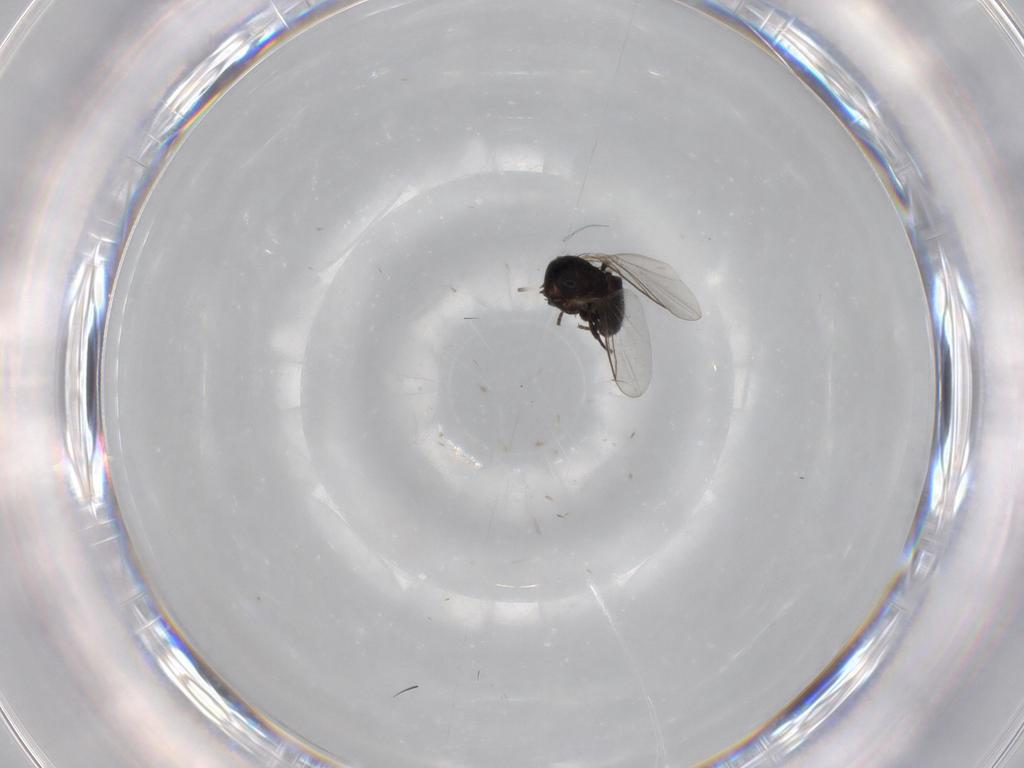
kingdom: Animalia
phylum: Arthropoda
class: Insecta
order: Diptera
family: Agromyzidae
